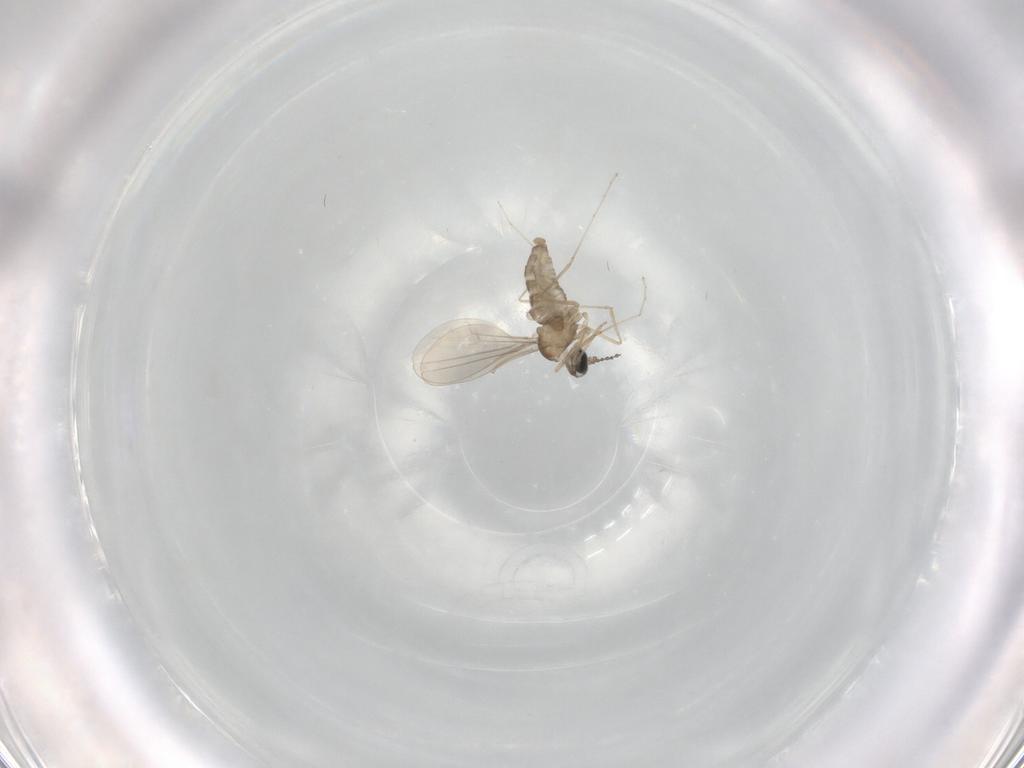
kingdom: Animalia
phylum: Arthropoda
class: Insecta
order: Diptera
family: Cecidomyiidae
